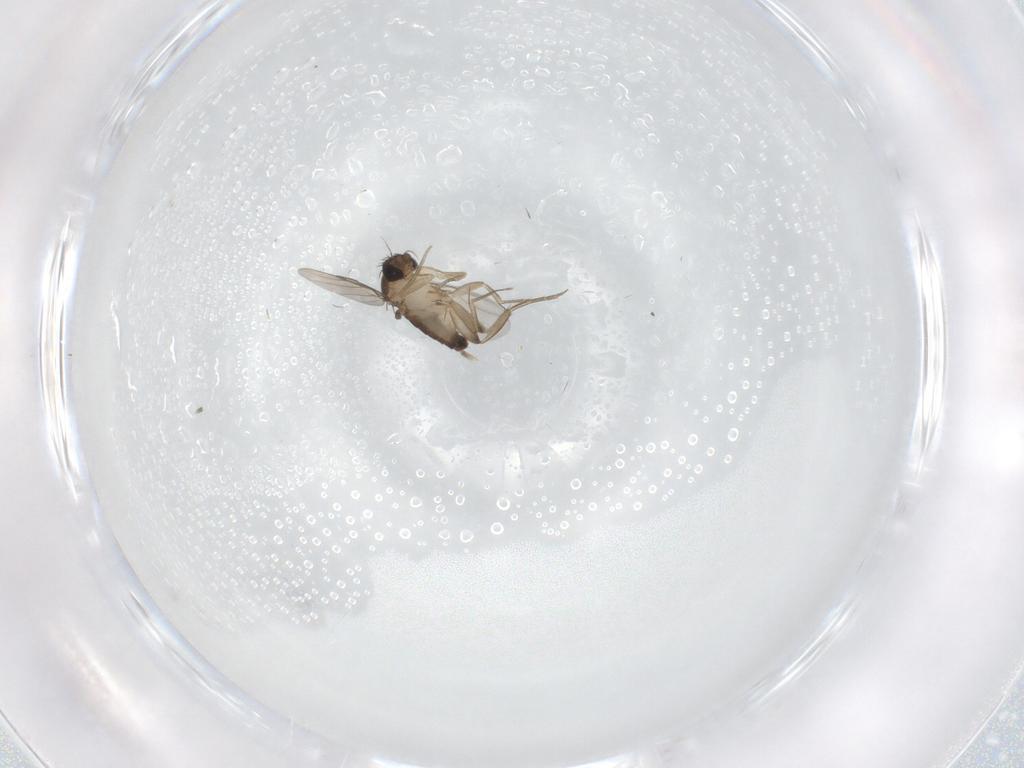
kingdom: Animalia
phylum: Arthropoda
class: Insecta
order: Diptera
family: Phoridae
